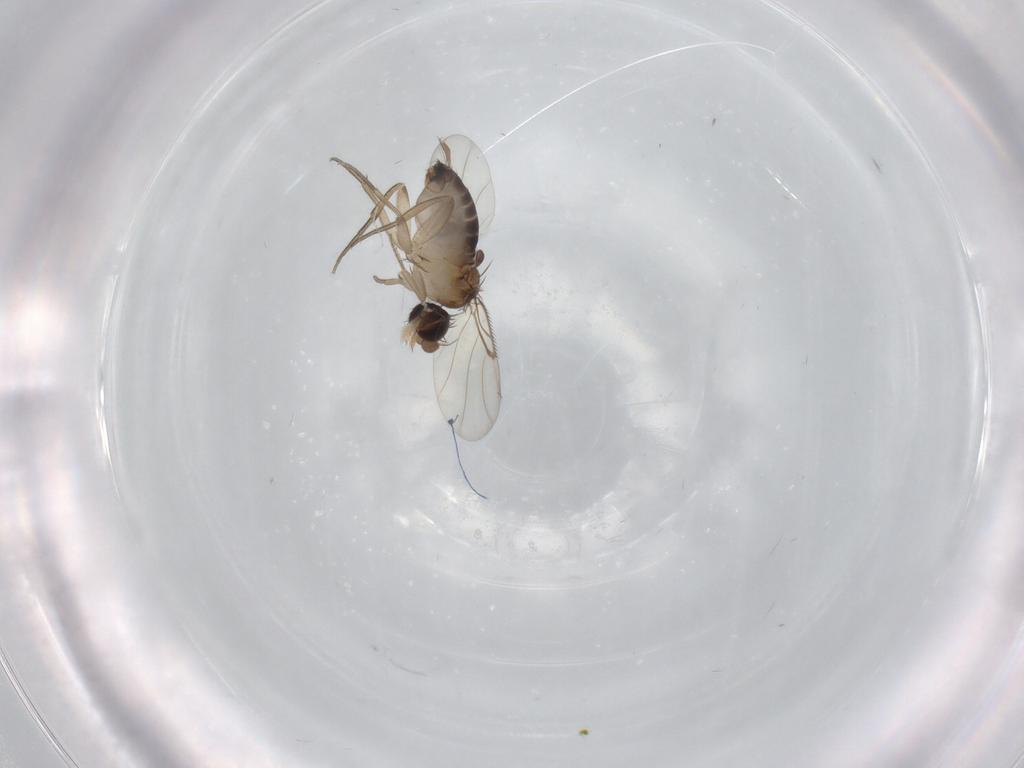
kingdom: Animalia
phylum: Arthropoda
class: Insecta
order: Diptera
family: Phoridae
